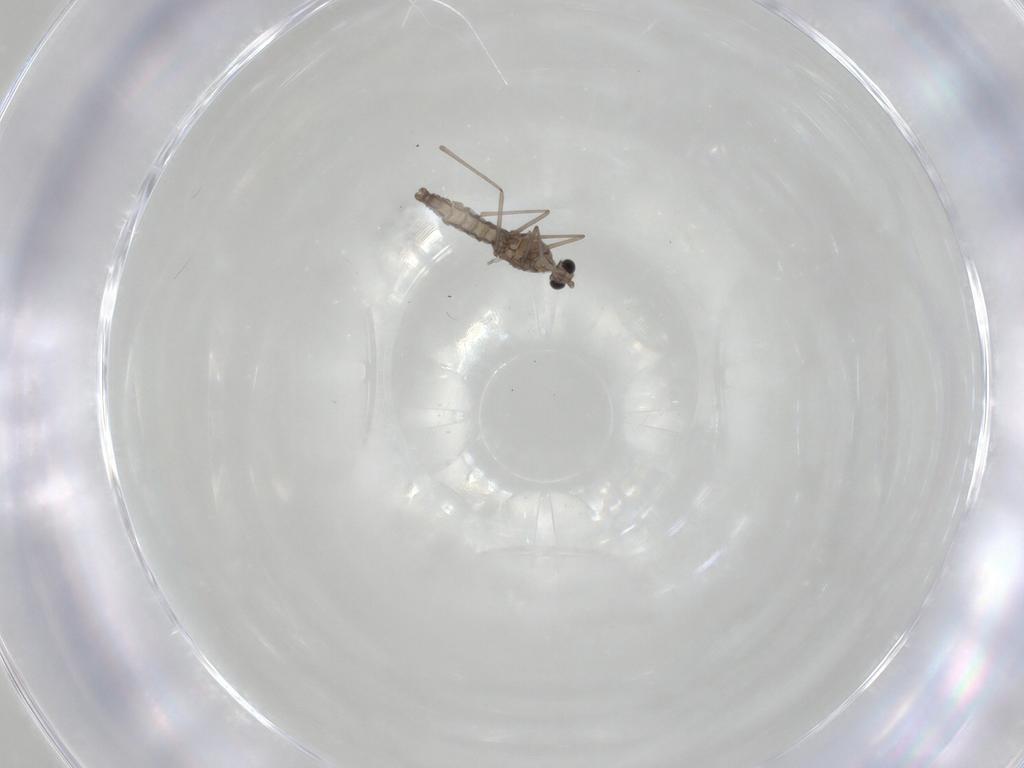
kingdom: Animalia
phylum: Arthropoda
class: Insecta
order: Diptera
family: Cecidomyiidae
